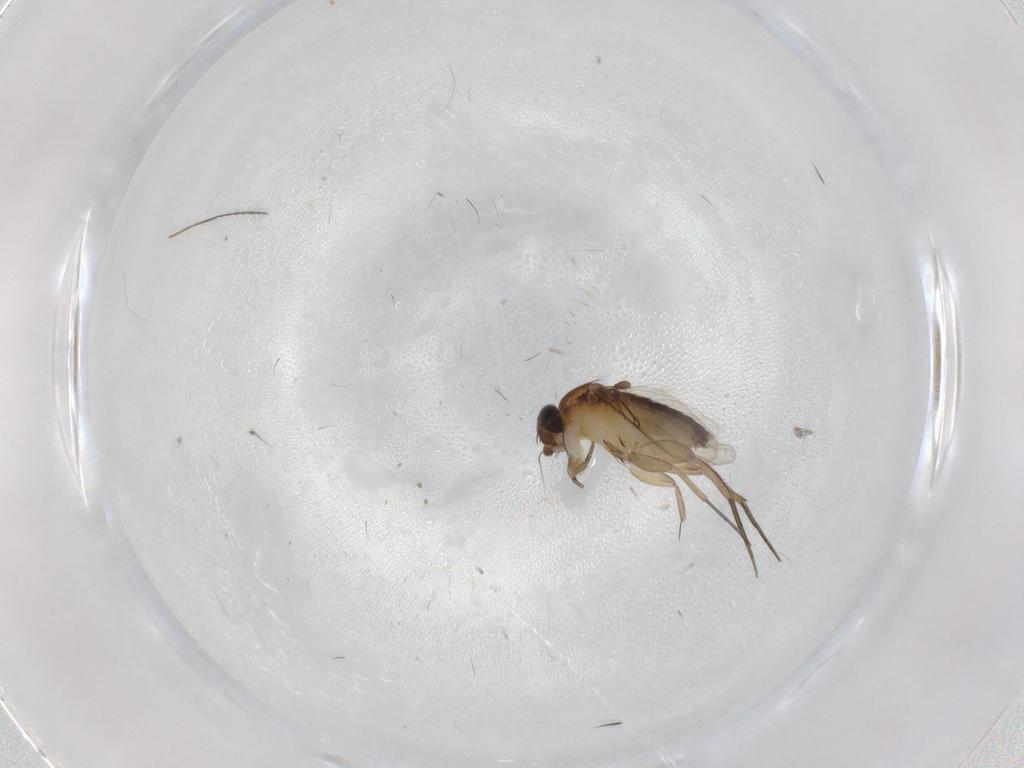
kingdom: Animalia
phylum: Arthropoda
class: Insecta
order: Diptera
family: Phoridae
